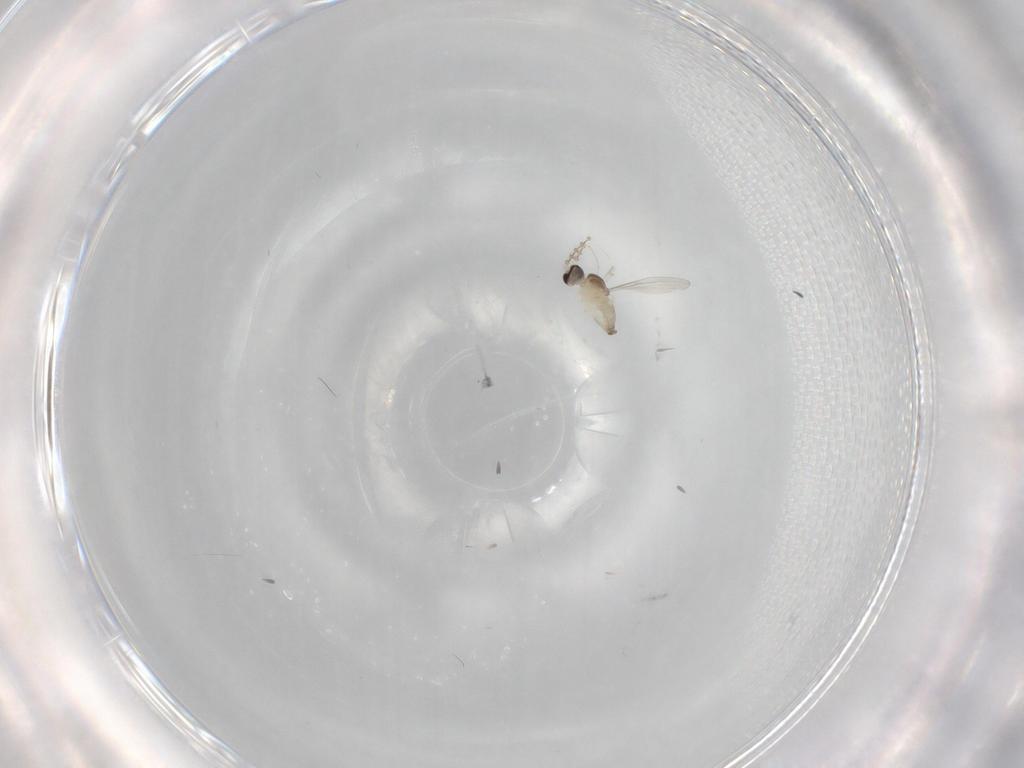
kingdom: Animalia
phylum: Arthropoda
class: Insecta
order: Diptera
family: Cecidomyiidae
